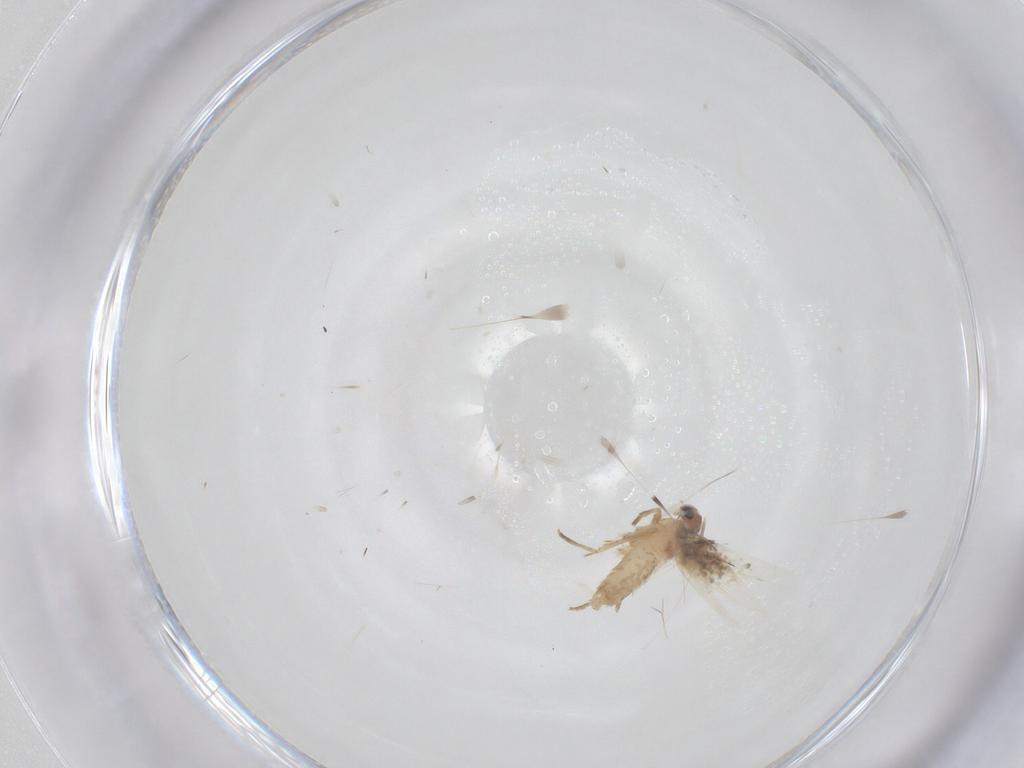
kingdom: Animalia
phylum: Arthropoda
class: Insecta
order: Lepidoptera
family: Nepticulidae
